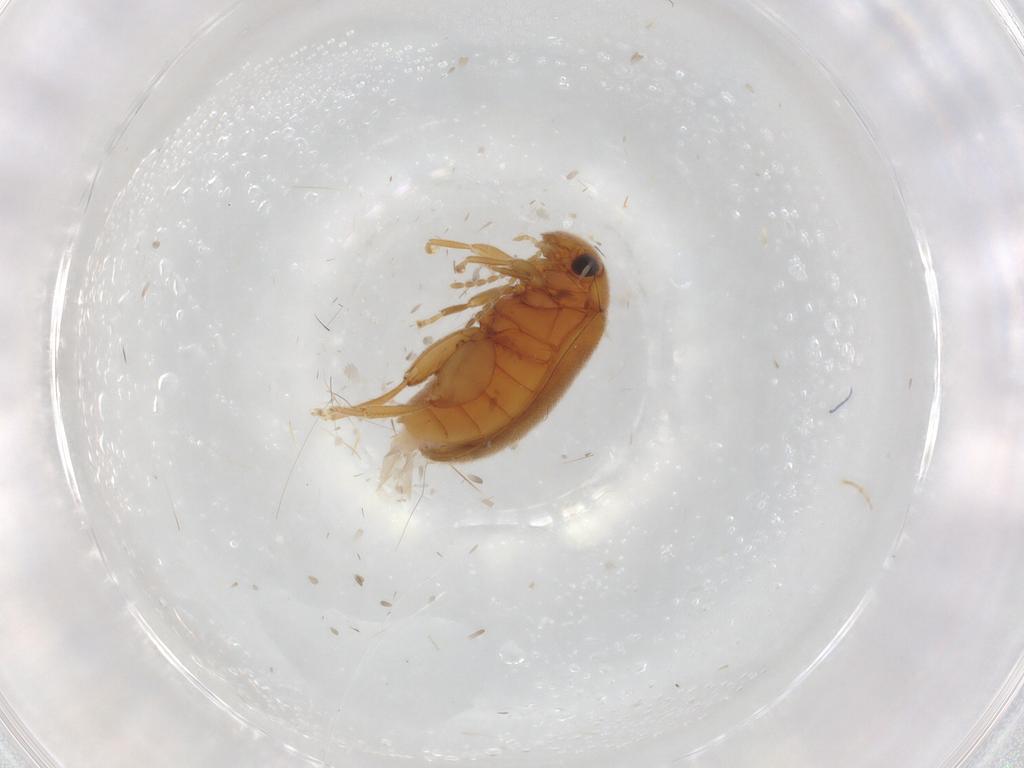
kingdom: Animalia
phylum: Arthropoda
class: Insecta
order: Coleoptera
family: Scirtidae
